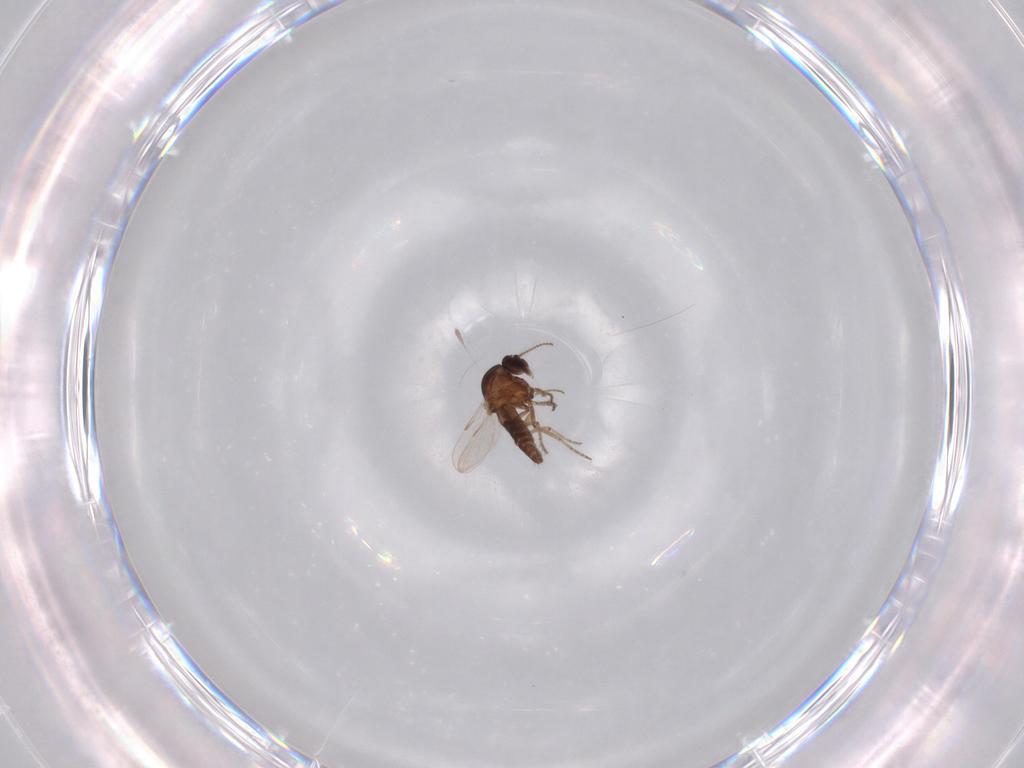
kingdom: Animalia
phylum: Arthropoda
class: Insecta
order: Diptera
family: Ceratopogonidae
